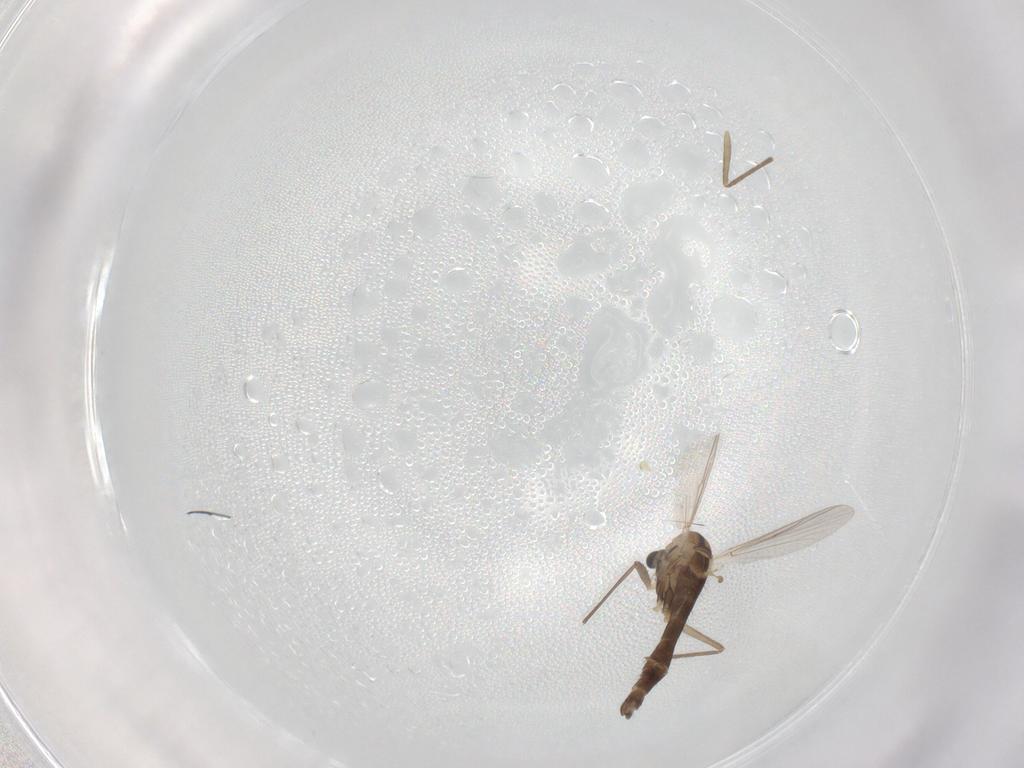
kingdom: Animalia
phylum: Arthropoda
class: Insecta
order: Diptera
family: Chironomidae
